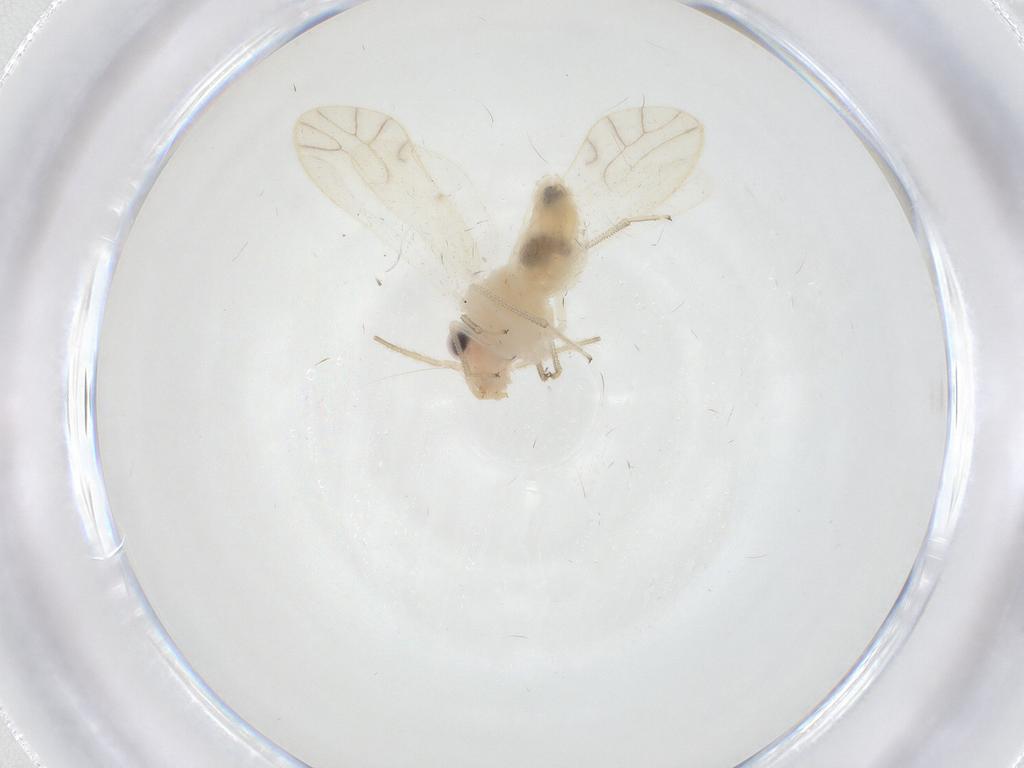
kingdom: Animalia
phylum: Arthropoda
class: Insecta
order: Psocodea
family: Caeciliusidae
